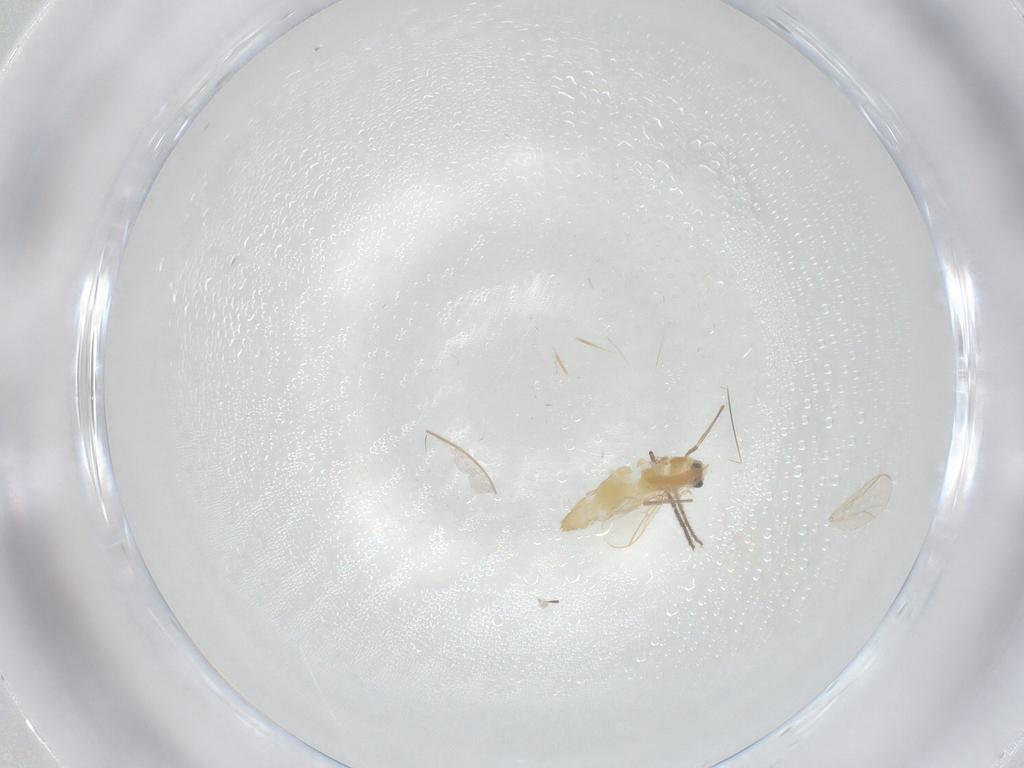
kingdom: Animalia
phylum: Arthropoda
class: Insecta
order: Diptera
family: Chironomidae
